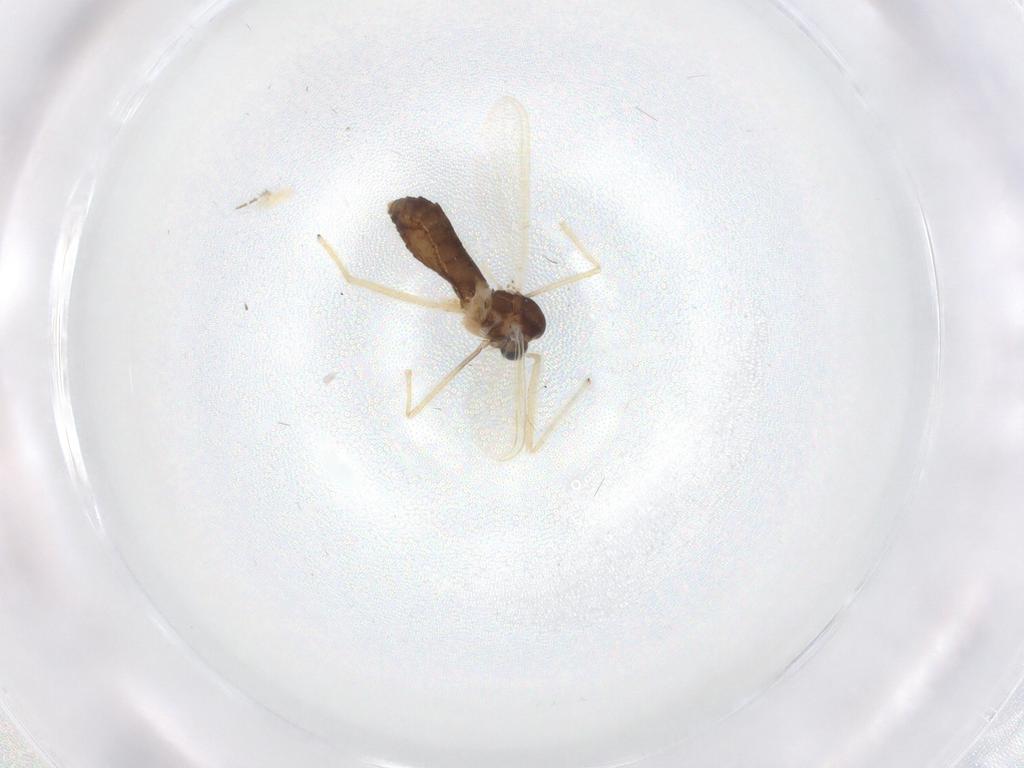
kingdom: Animalia
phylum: Arthropoda
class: Insecta
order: Diptera
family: Chironomidae
